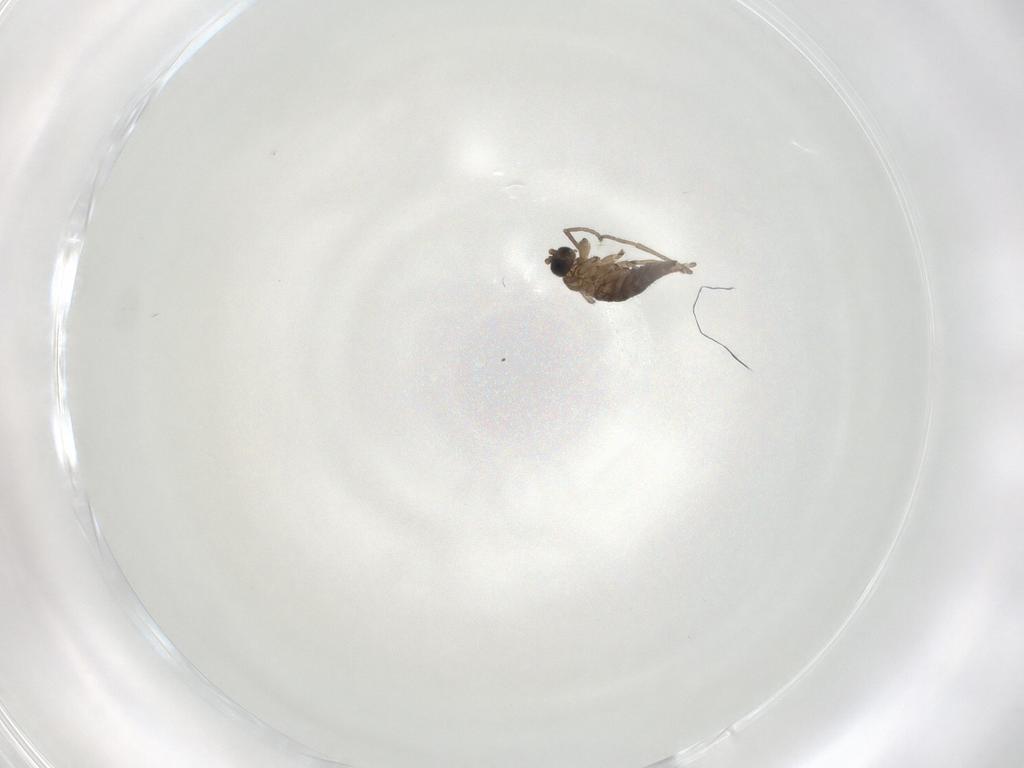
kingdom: Animalia
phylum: Arthropoda
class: Insecta
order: Diptera
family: Sciaridae
